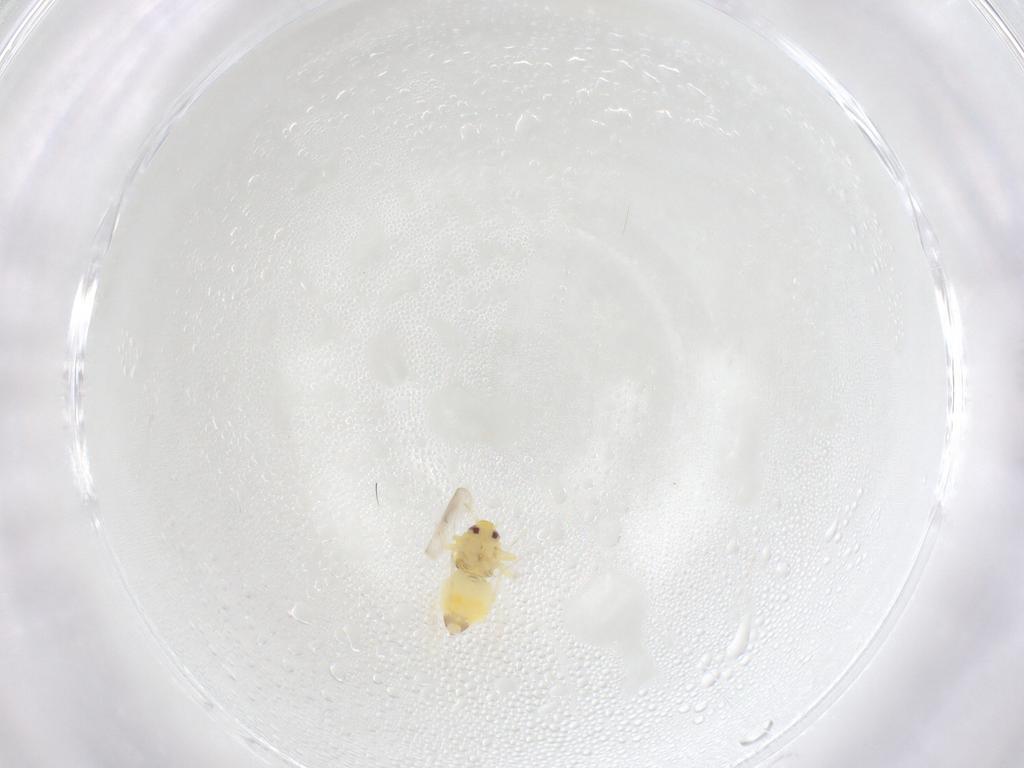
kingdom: Animalia
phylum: Arthropoda
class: Insecta
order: Hemiptera
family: Aleyrodidae
